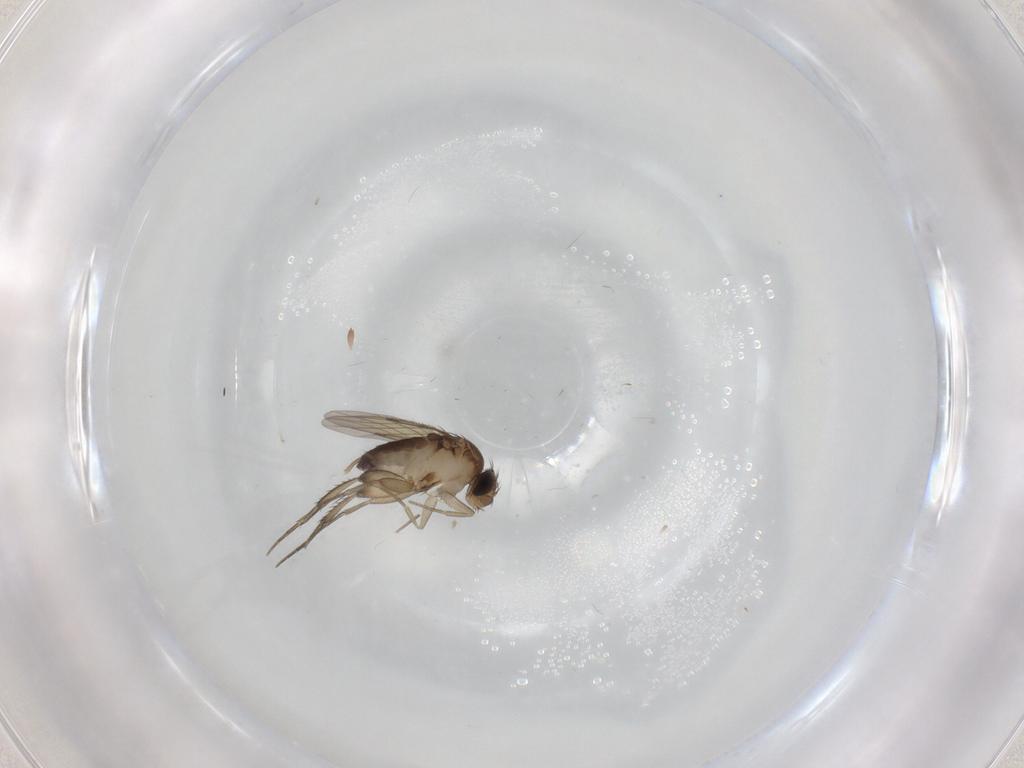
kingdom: Animalia
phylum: Arthropoda
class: Insecta
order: Diptera
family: Phoridae
